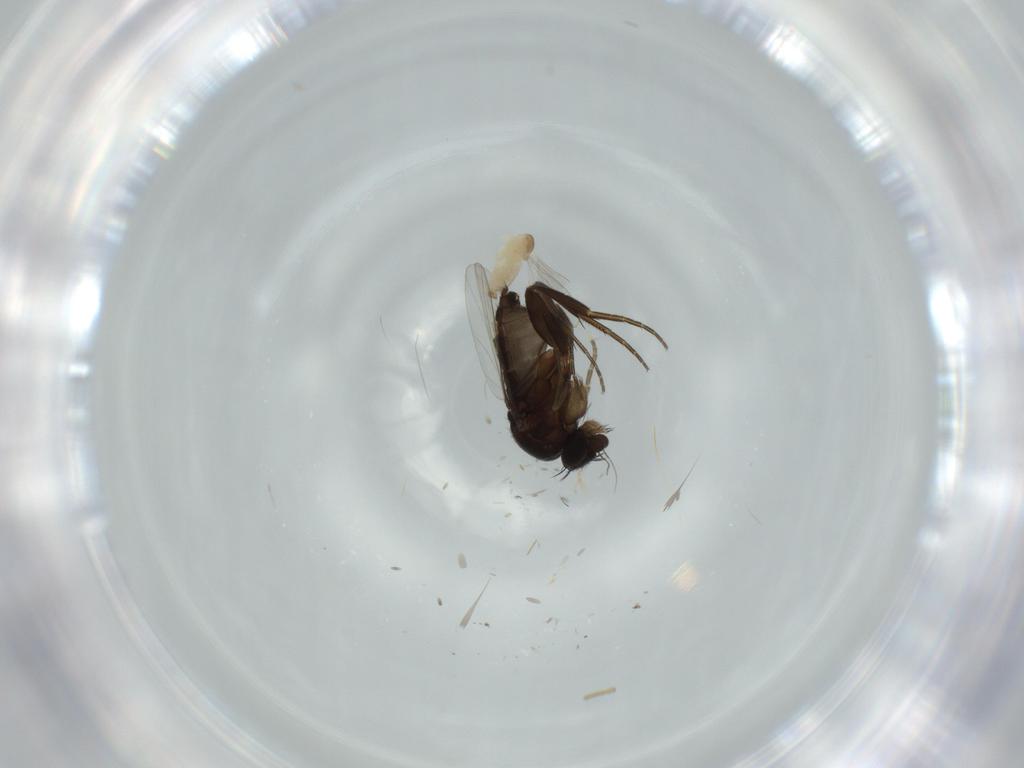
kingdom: Animalia
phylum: Arthropoda
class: Insecta
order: Diptera
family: Cecidomyiidae
